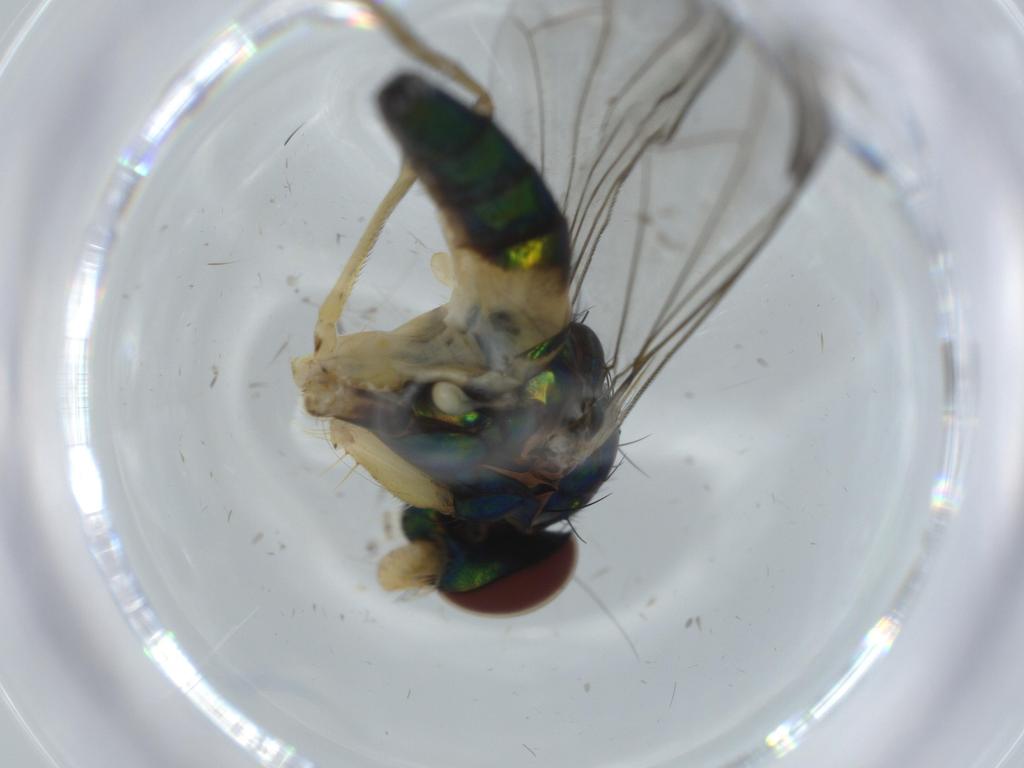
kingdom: Animalia
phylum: Arthropoda
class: Insecta
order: Diptera
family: Dolichopodidae
